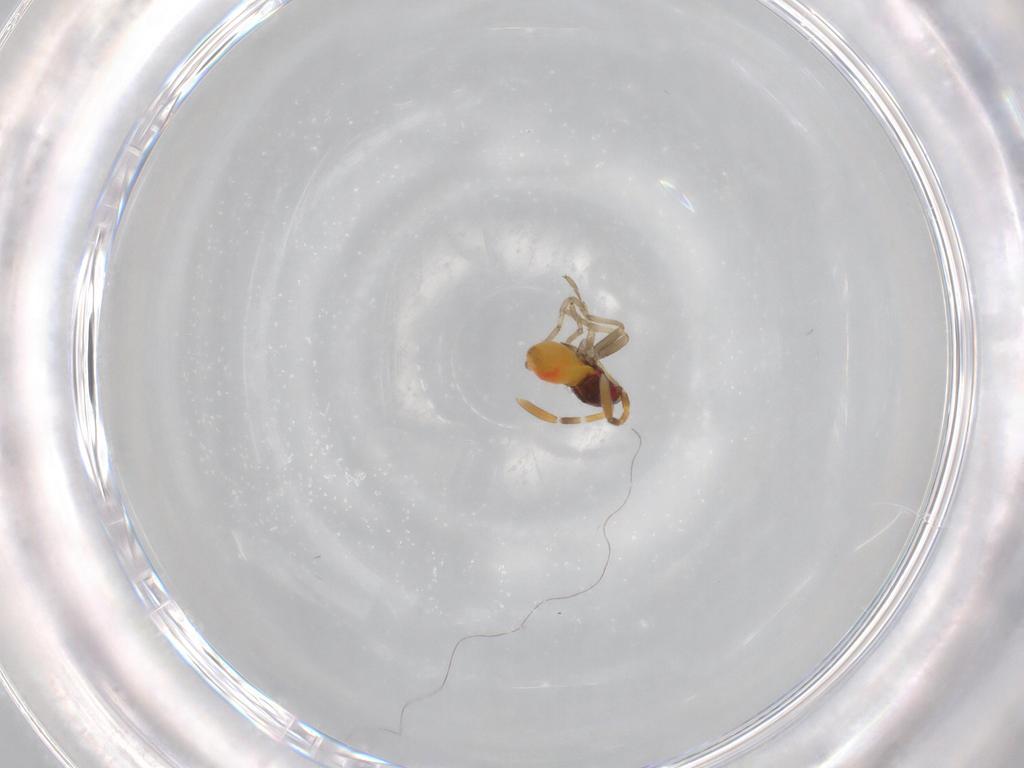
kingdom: Animalia
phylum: Arthropoda
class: Insecta
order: Hemiptera
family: Rhyparochromidae
